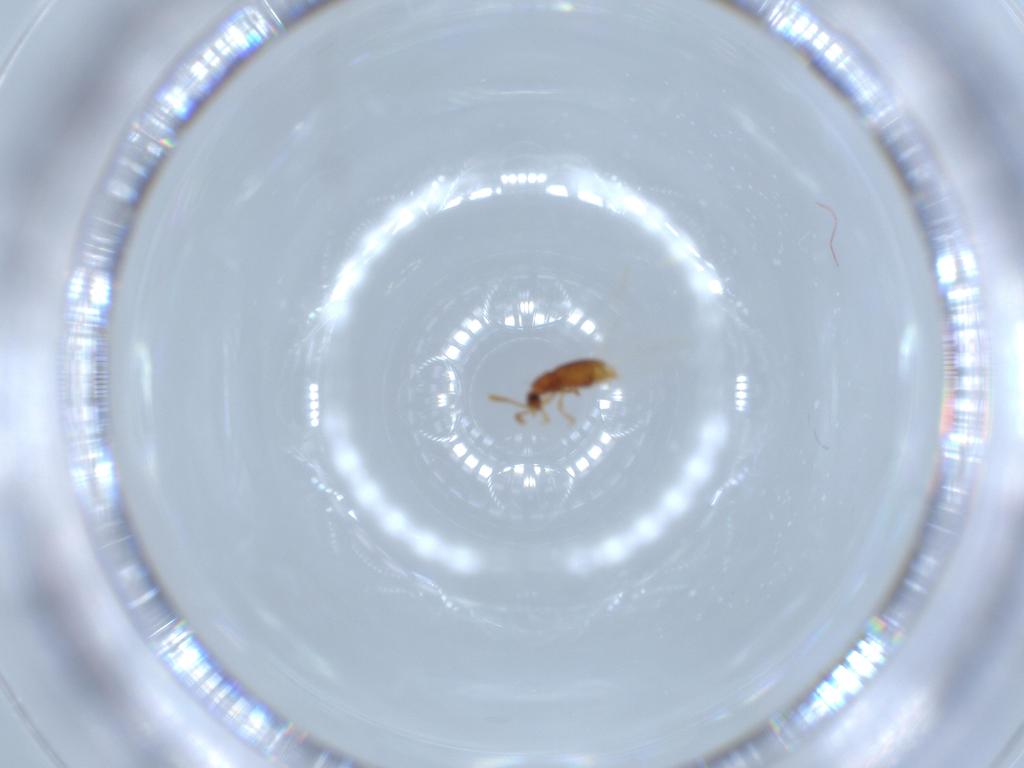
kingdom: Animalia
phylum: Arthropoda
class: Insecta
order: Coleoptera
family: Staphylinidae
